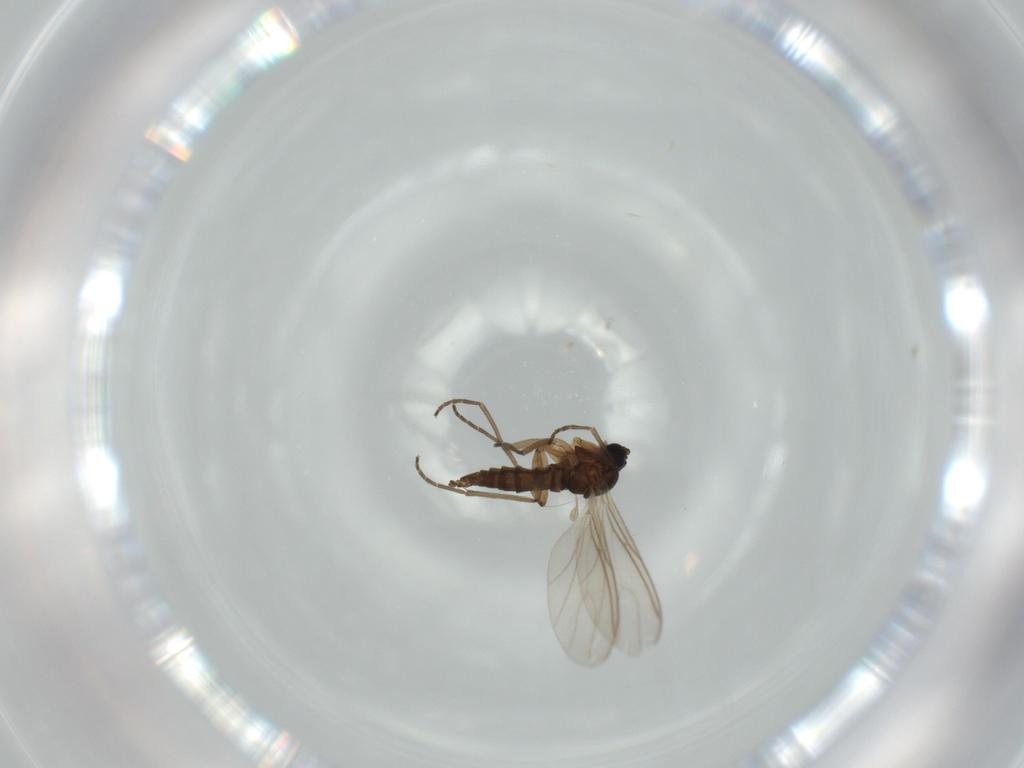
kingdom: Animalia
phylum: Arthropoda
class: Insecta
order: Diptera
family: Sciaridae
